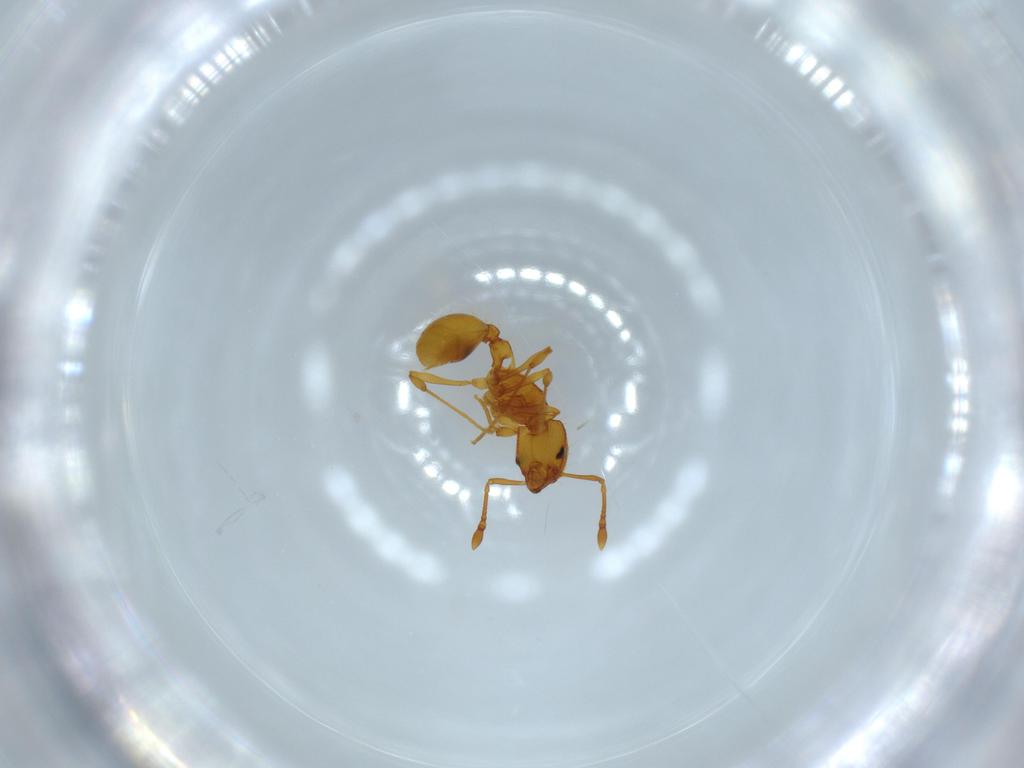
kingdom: Animalia
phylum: Arthropoda
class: Insecta
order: Hymenoptera
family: Formicidae
